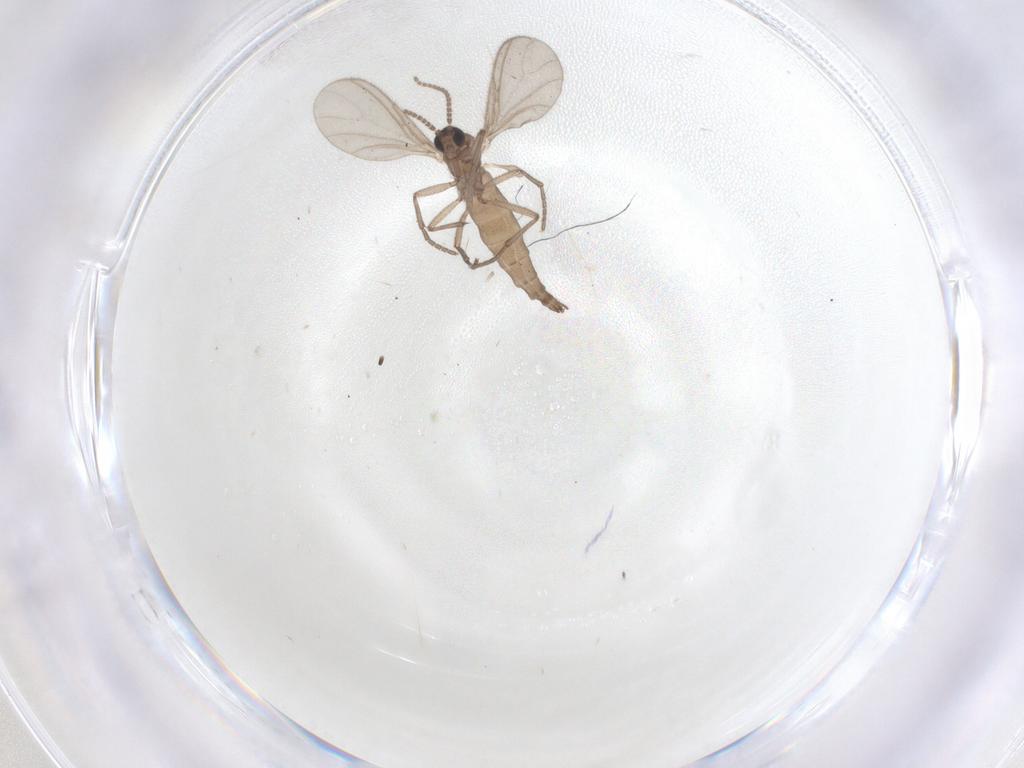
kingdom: Animalia
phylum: Arthropoda
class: Insecta
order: Diptera
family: Sciaridae
